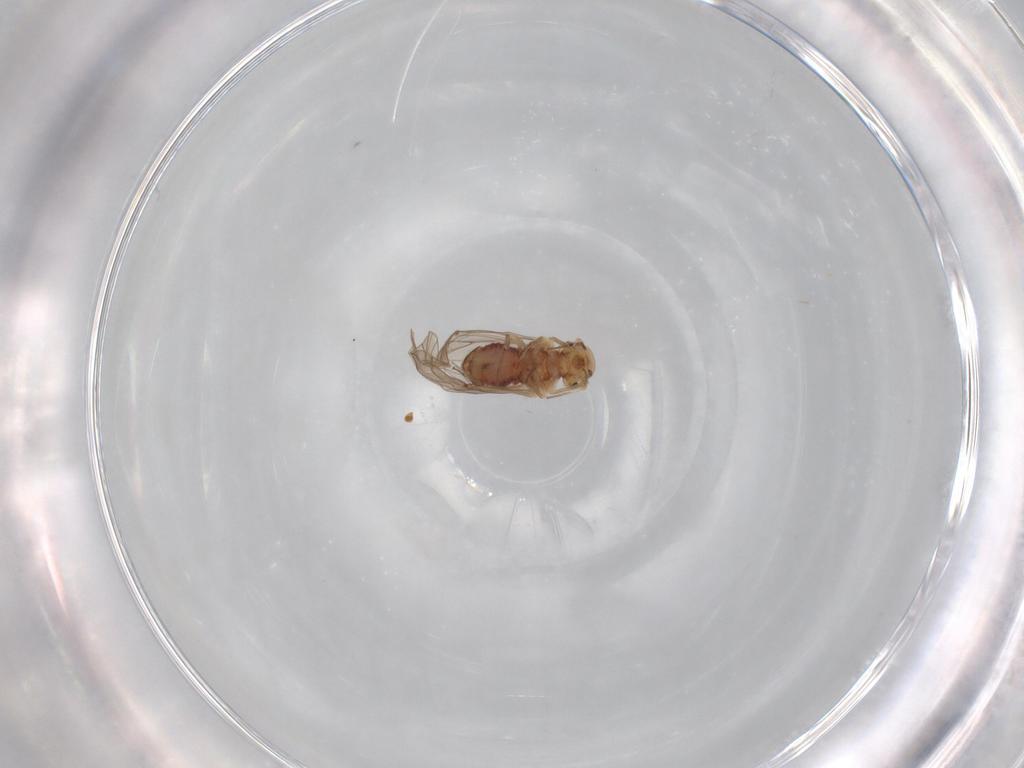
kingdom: Animalia
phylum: Arthropoda
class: Insecta
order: Psocodea
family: Lachesillidae
